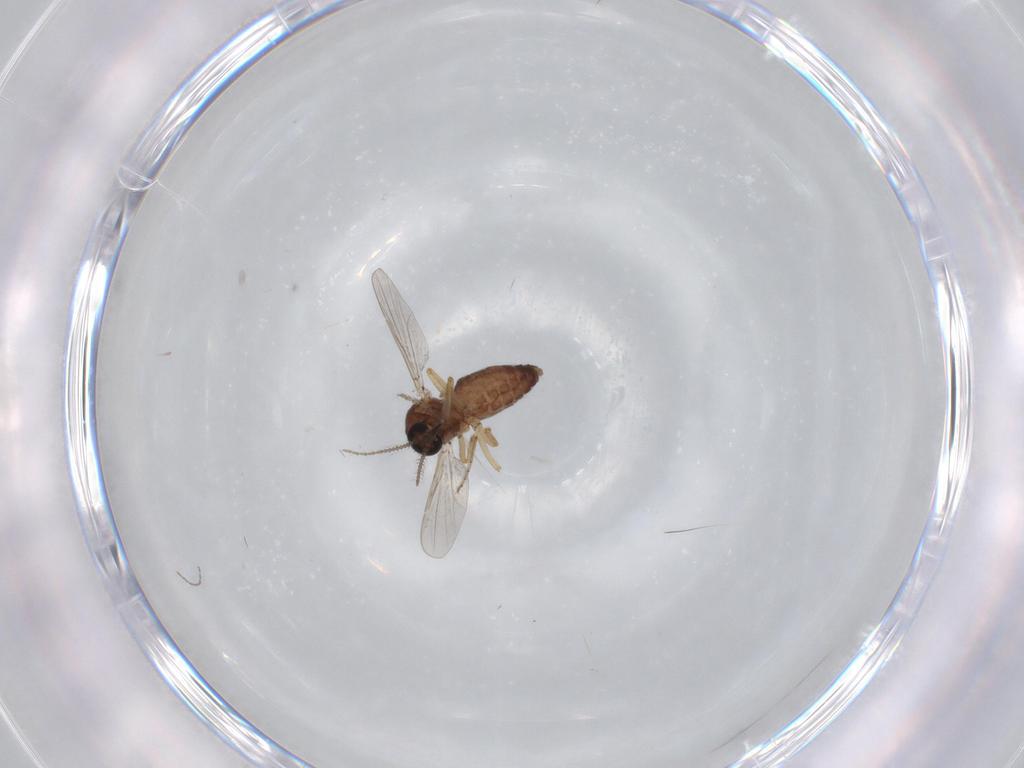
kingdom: Animalia
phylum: Arthropoda
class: Insecta
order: Diptera
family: Ceratopogonidae
